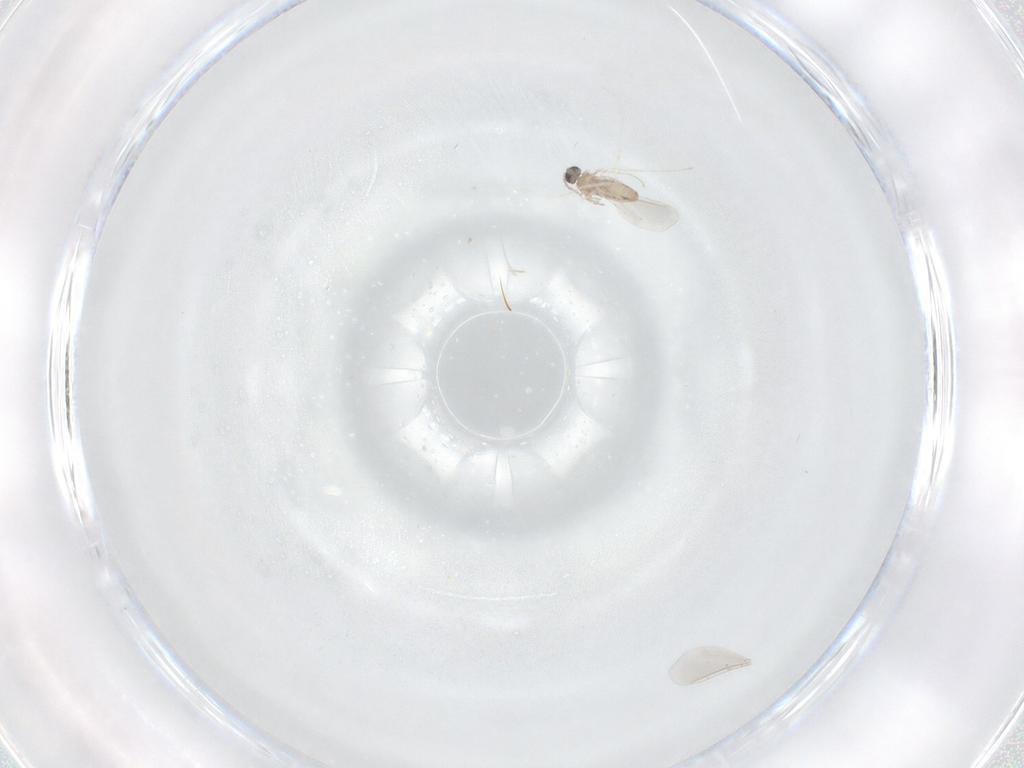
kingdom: Animalia
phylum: Arthropoda
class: Insecta
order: Diptera
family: Cecidomyiidae
